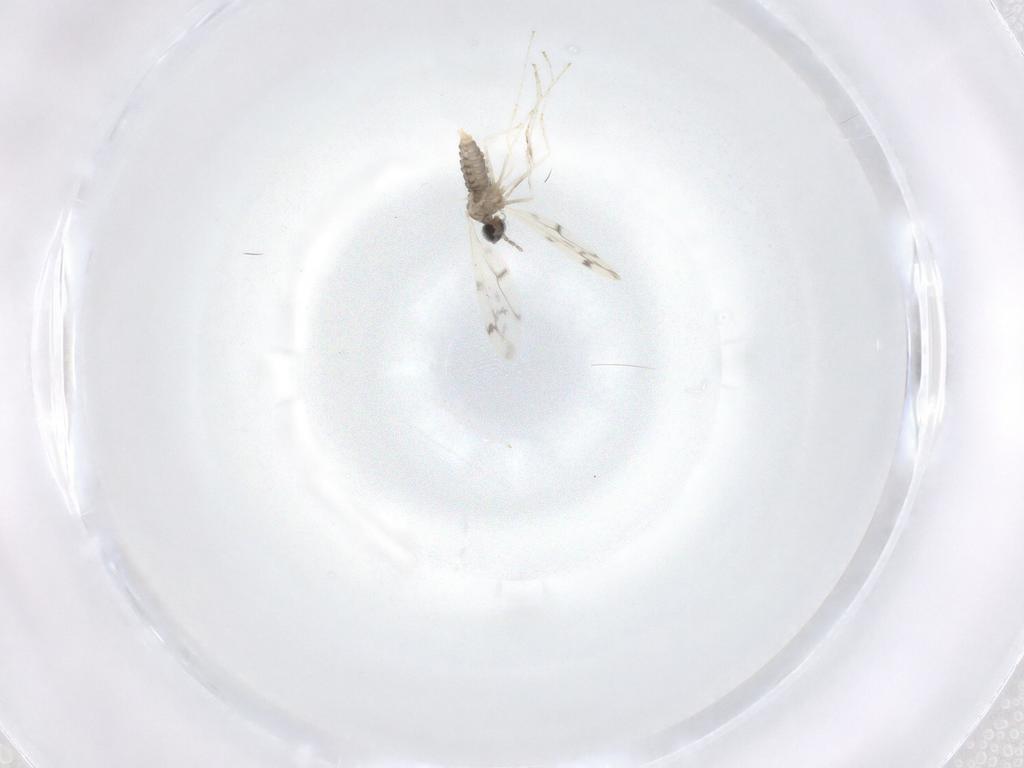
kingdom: Animalia
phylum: Arthropoda
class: Insecta
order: Diptera
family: Cecidomyiidae
